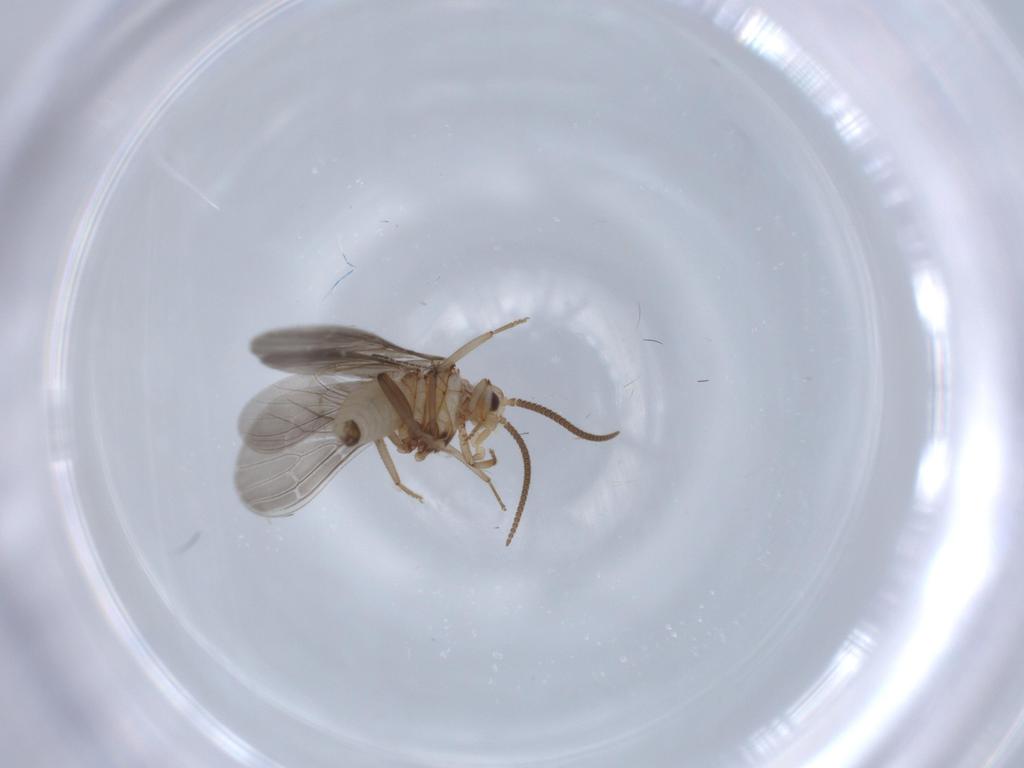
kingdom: Animalia
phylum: Arthropoda
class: Insecta
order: Neuroptera
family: Coniopterygidae
